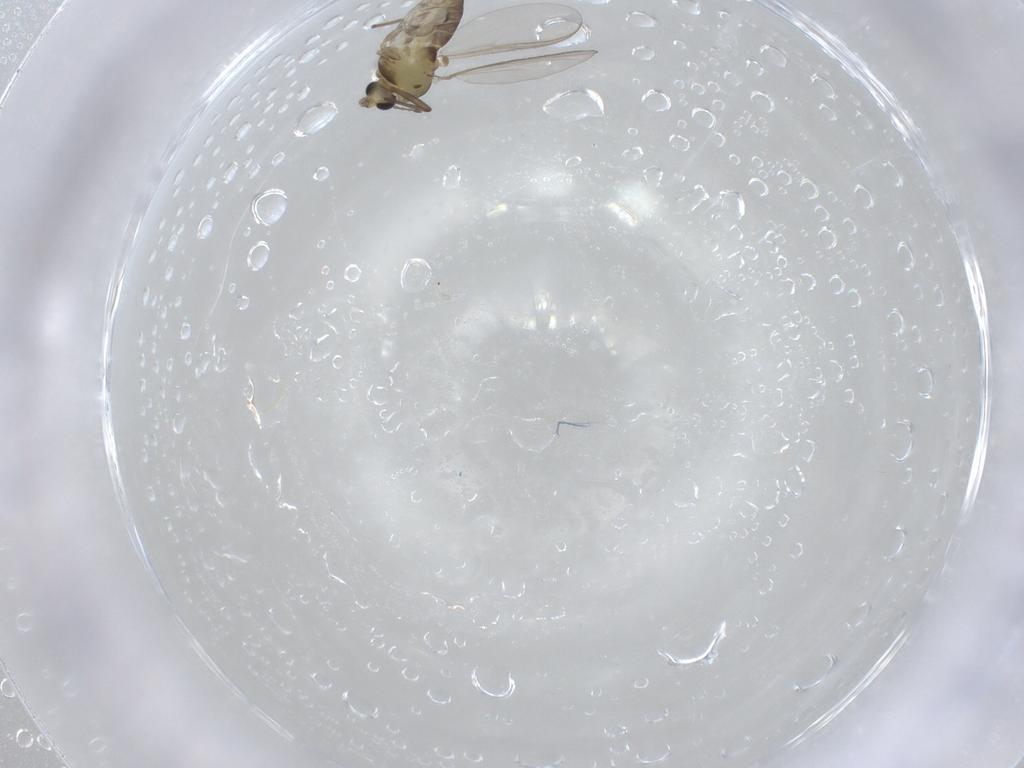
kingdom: Animalia
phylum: Arthropoda
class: Insecta
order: Diptera
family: Chironomidae
